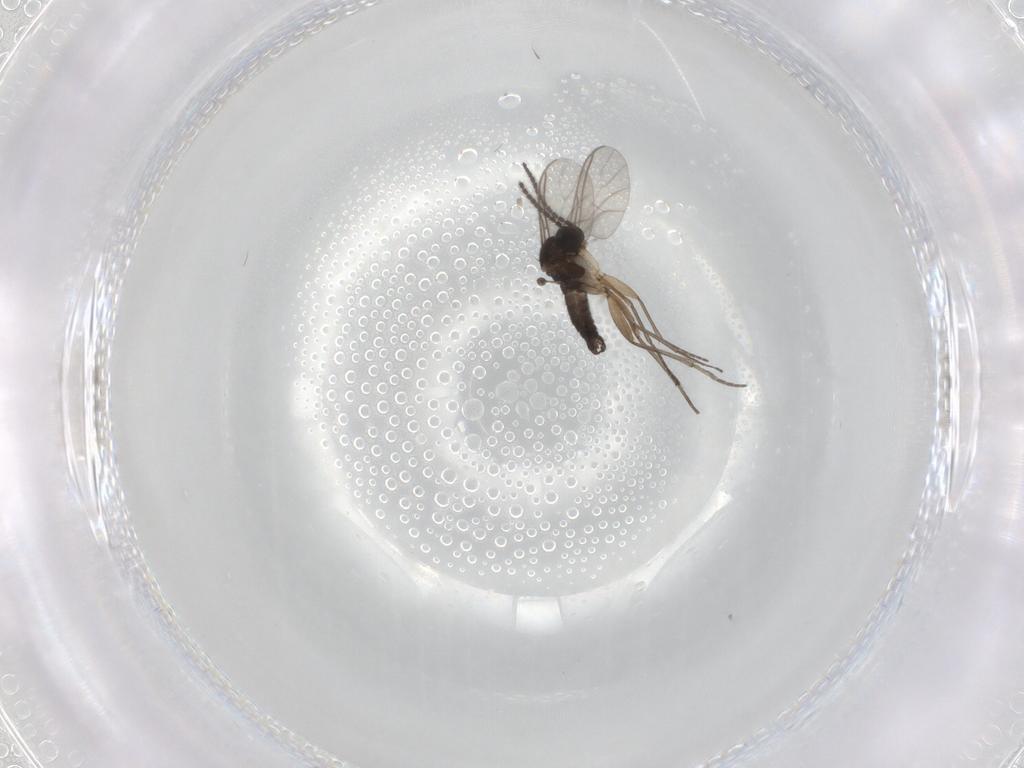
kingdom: Animalia
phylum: Arthropoda
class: Insecta
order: Diptera
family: Sciaridae
